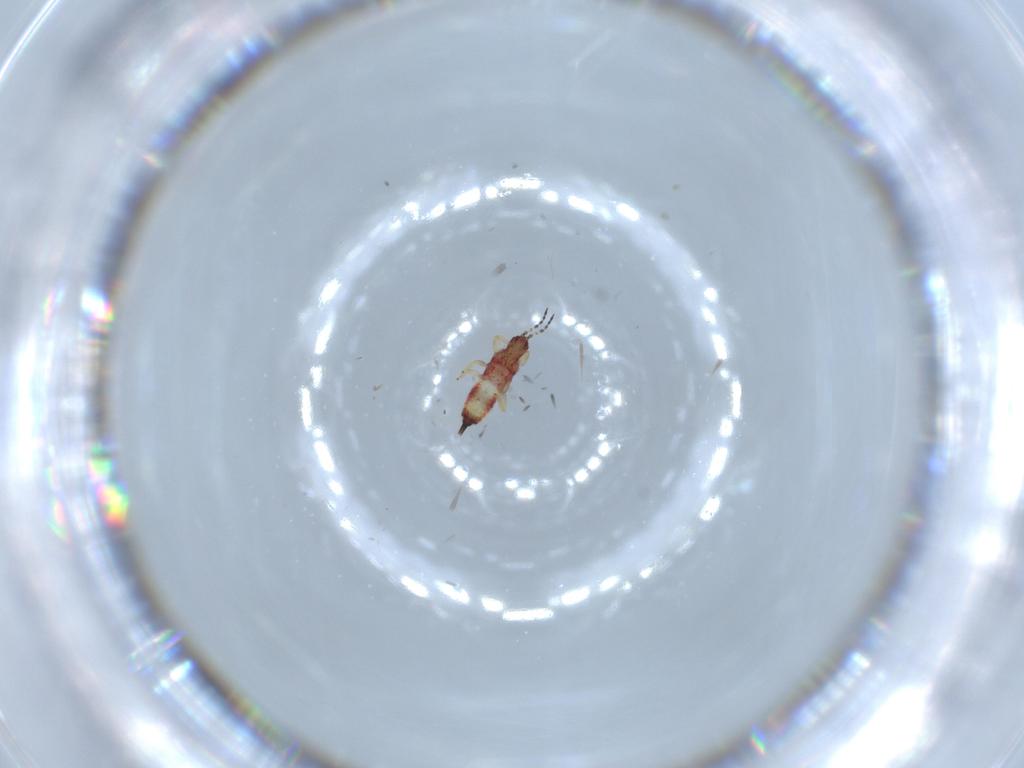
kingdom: Animalia
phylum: Arthropoda
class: Insecta
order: Thysanoptera
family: Phlaeothripidae
